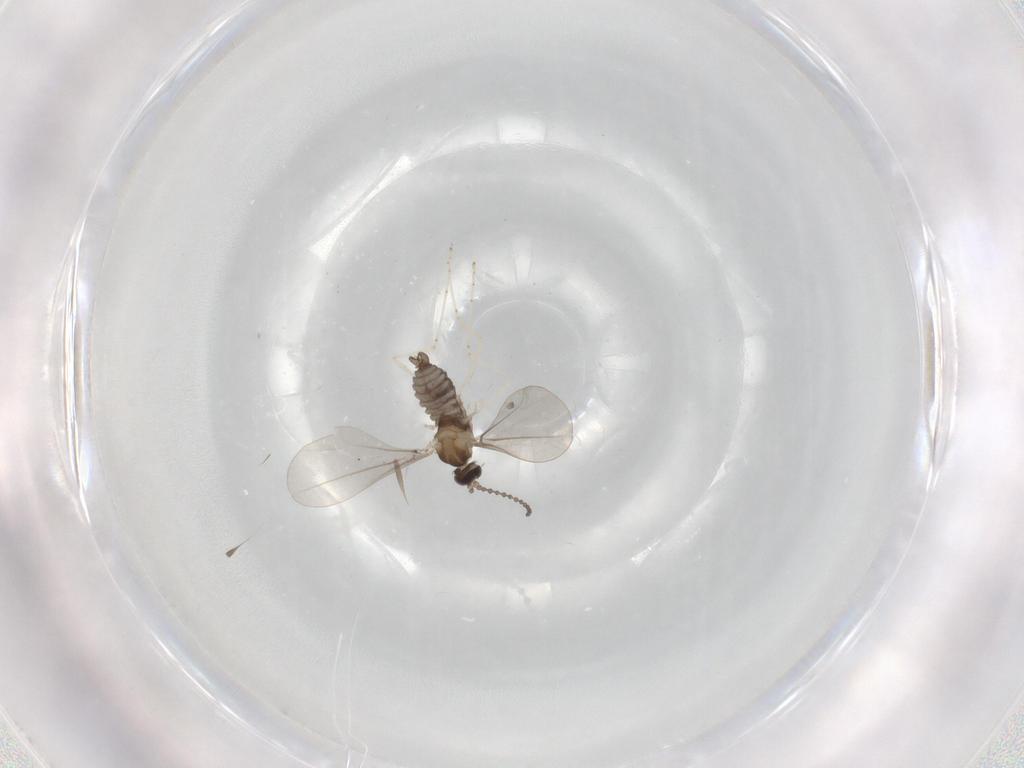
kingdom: Animalia
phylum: Arthropoda
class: Insecta
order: Diptera
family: Cecidomyiidae
